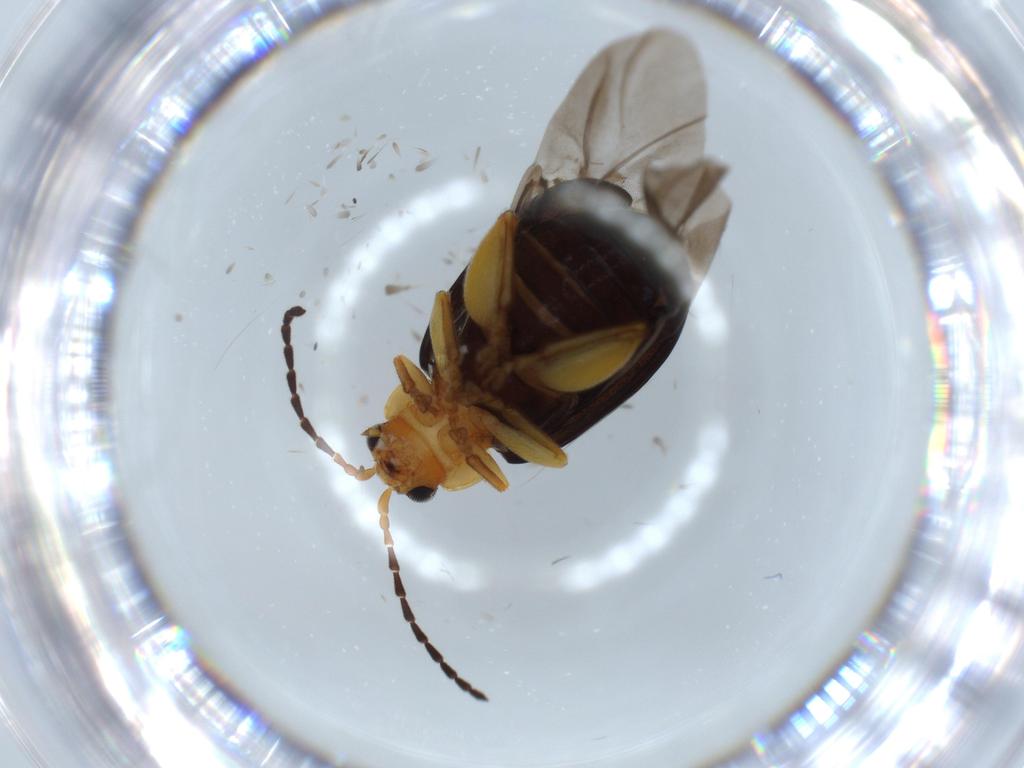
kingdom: Animalia
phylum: Arthropoda
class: Insecta
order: Coleoptera
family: Chrysomelidae
